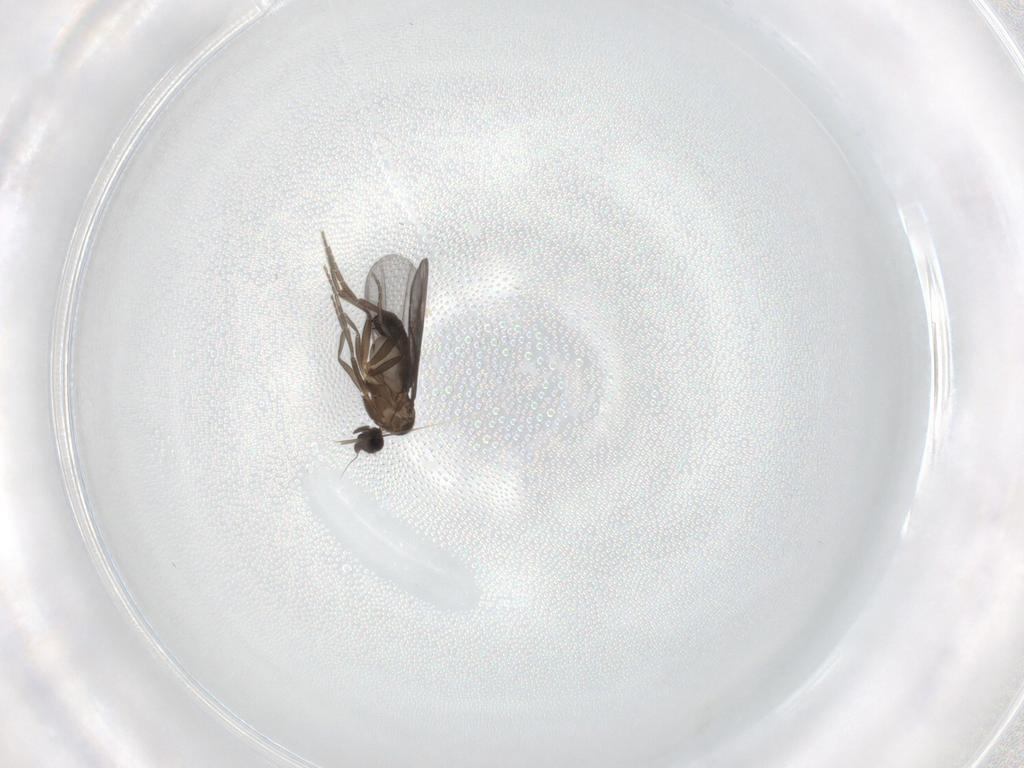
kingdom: Animalia
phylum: Arthropoda
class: Insecta
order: Diptera
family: Phoridae
